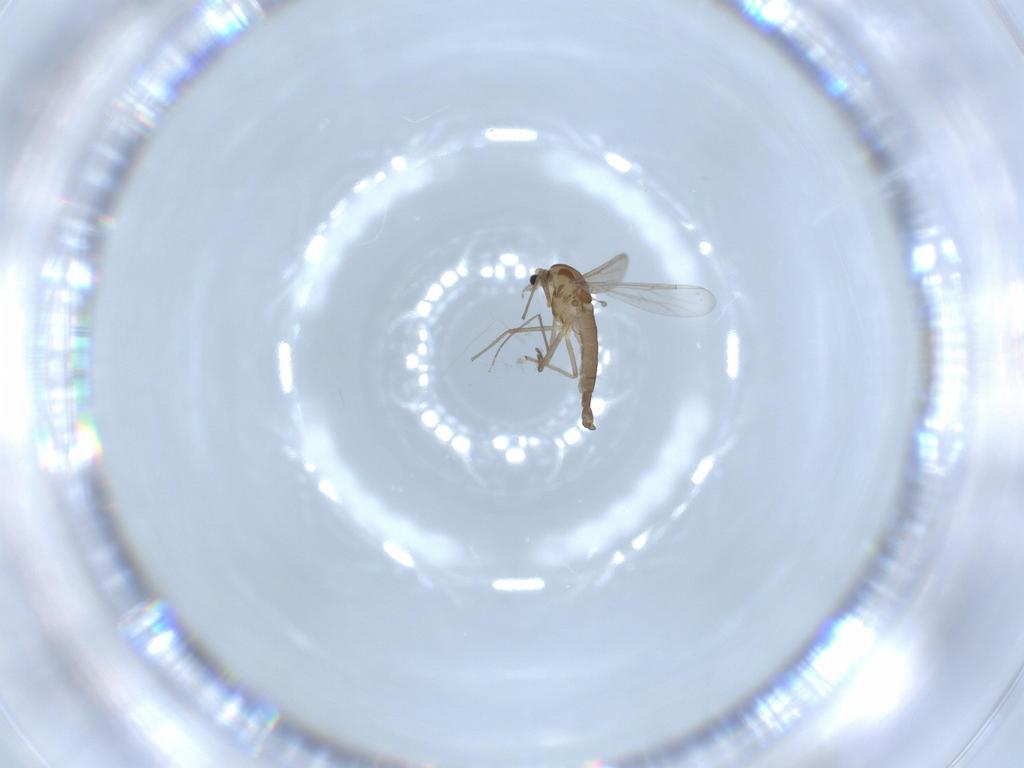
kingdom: Animalia
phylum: Arthropoda
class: Insecta
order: Diptera
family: Chironomidae
